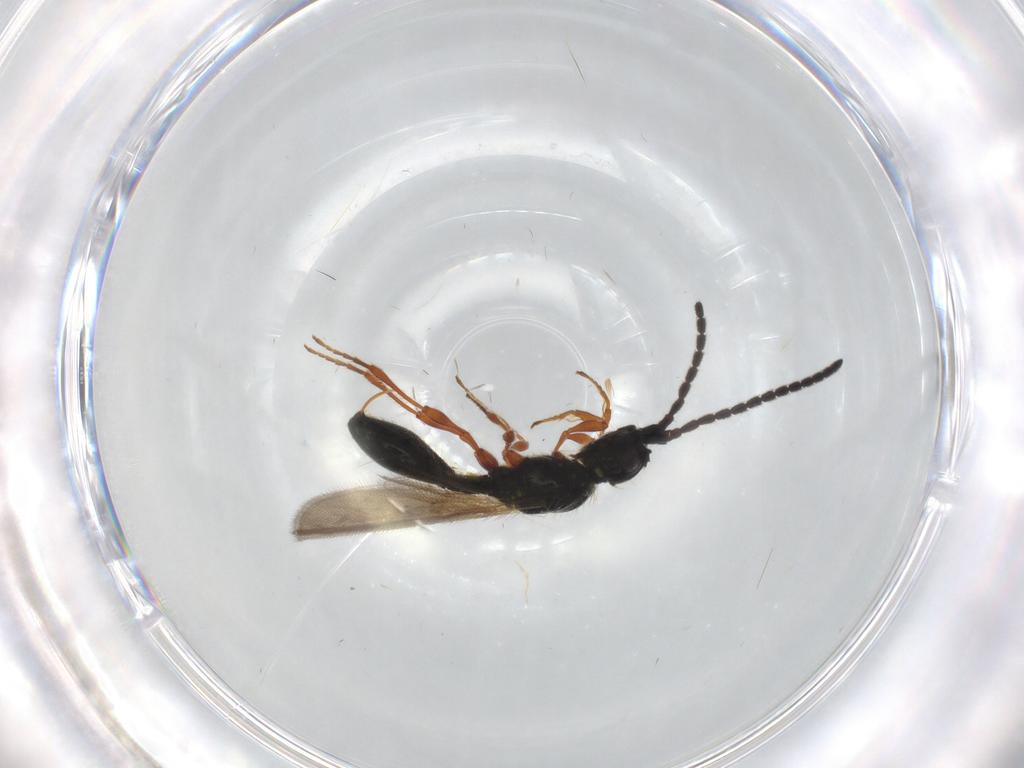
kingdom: Animalia
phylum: Arthropoda
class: Insecta
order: Hymenoptera
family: Diapriidae
